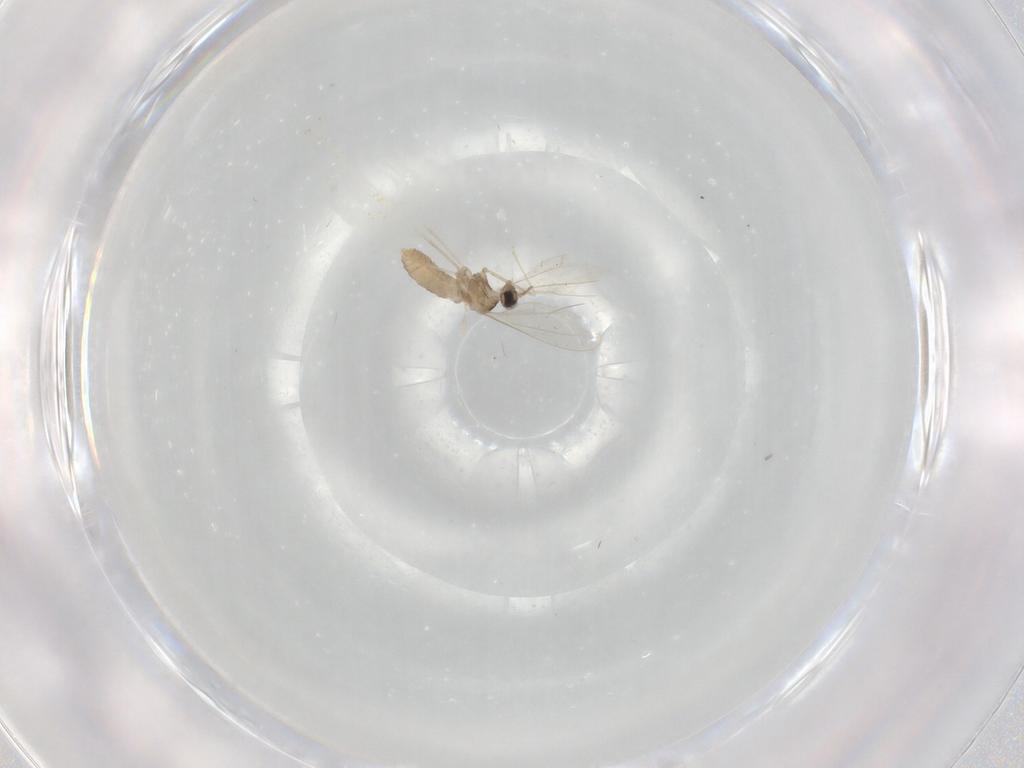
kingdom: Animalia
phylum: Arthropoda
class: Insecta
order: Diptera
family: Cecidomyiidae
